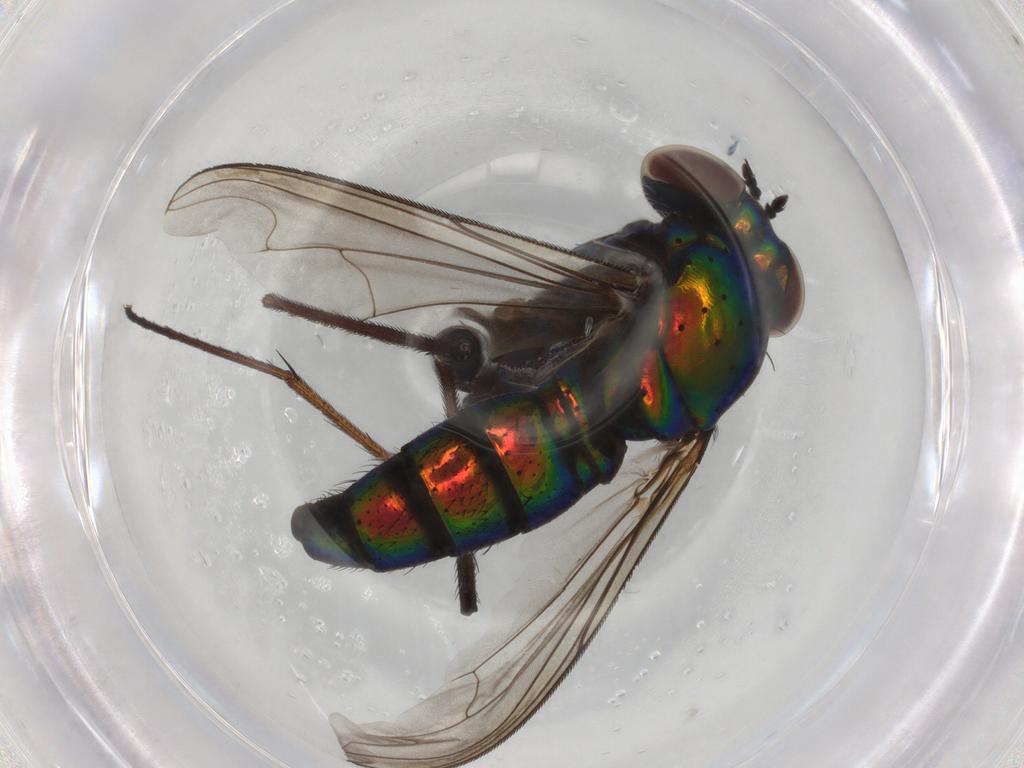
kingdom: Animalia
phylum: Arthropoda
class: Insecta
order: Diptera
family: Dolichopodidae
